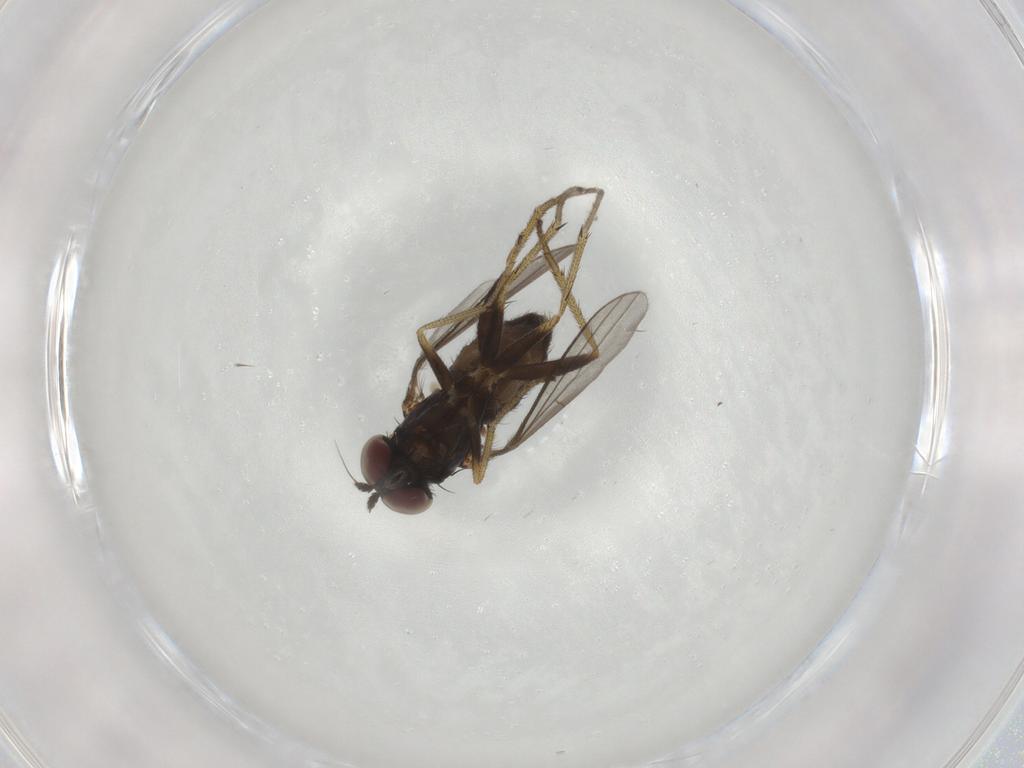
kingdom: Animalia
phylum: Arthropoda
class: Insecta
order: Diptera
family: Dolichopodidae
